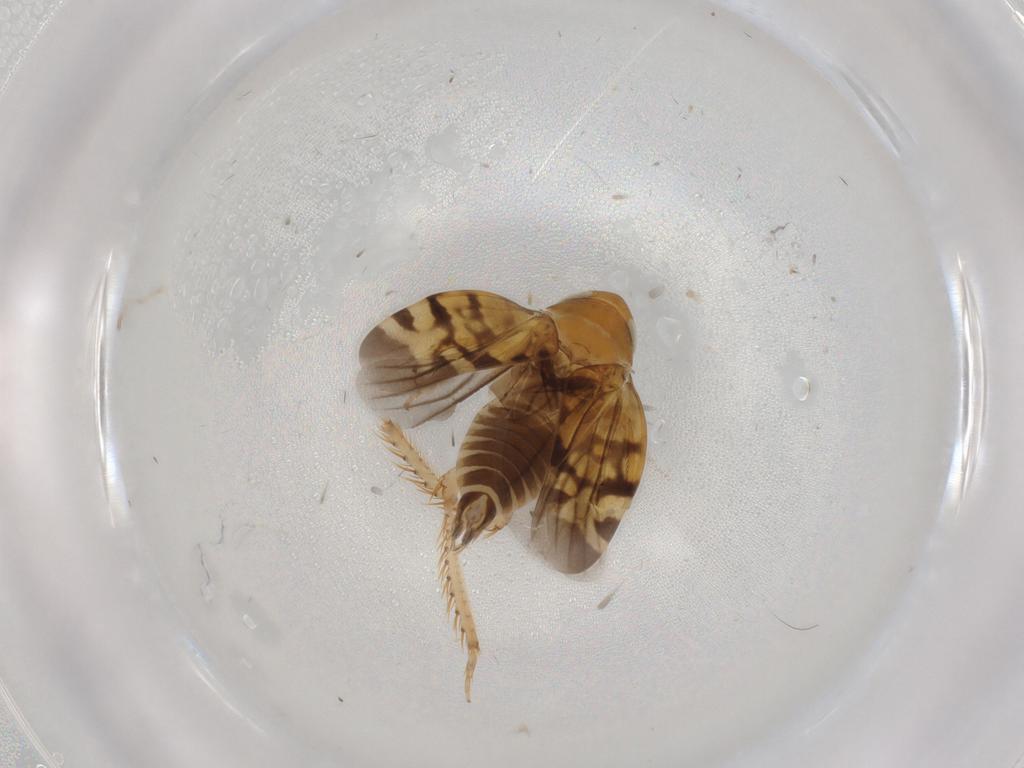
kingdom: Animalia
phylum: Arthropoda
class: Insecta
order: Hemiptera
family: Cicadellidae
